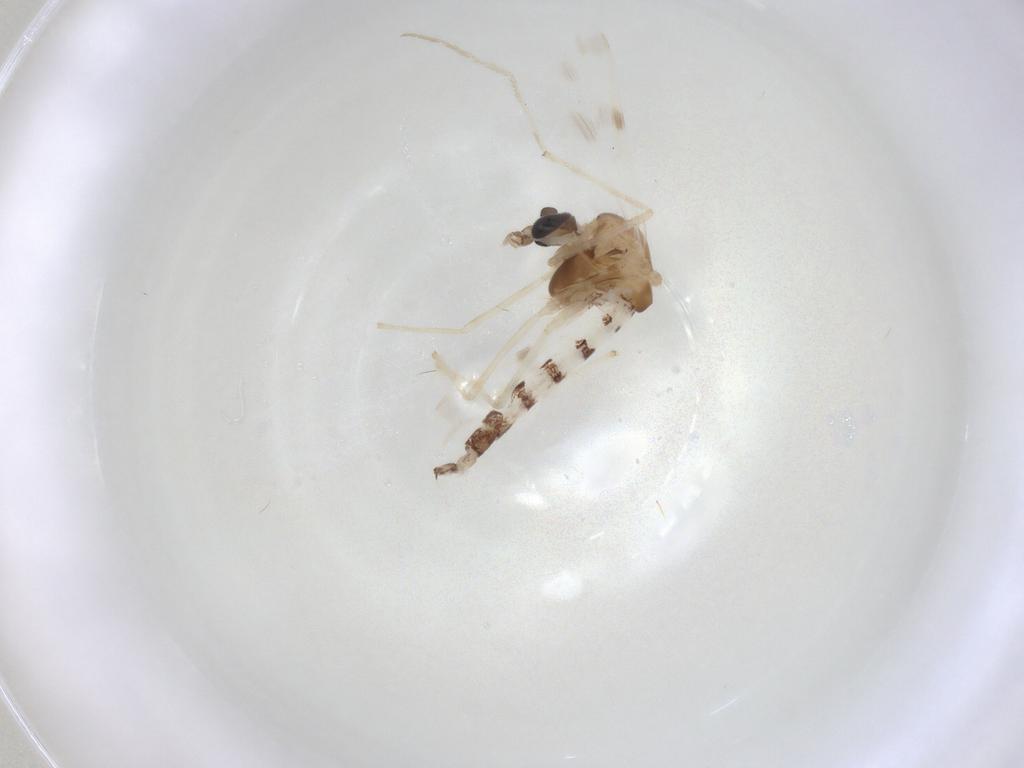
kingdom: Animalia
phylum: Arthropoda
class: Insecta
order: Diptera
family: Chironomidae
